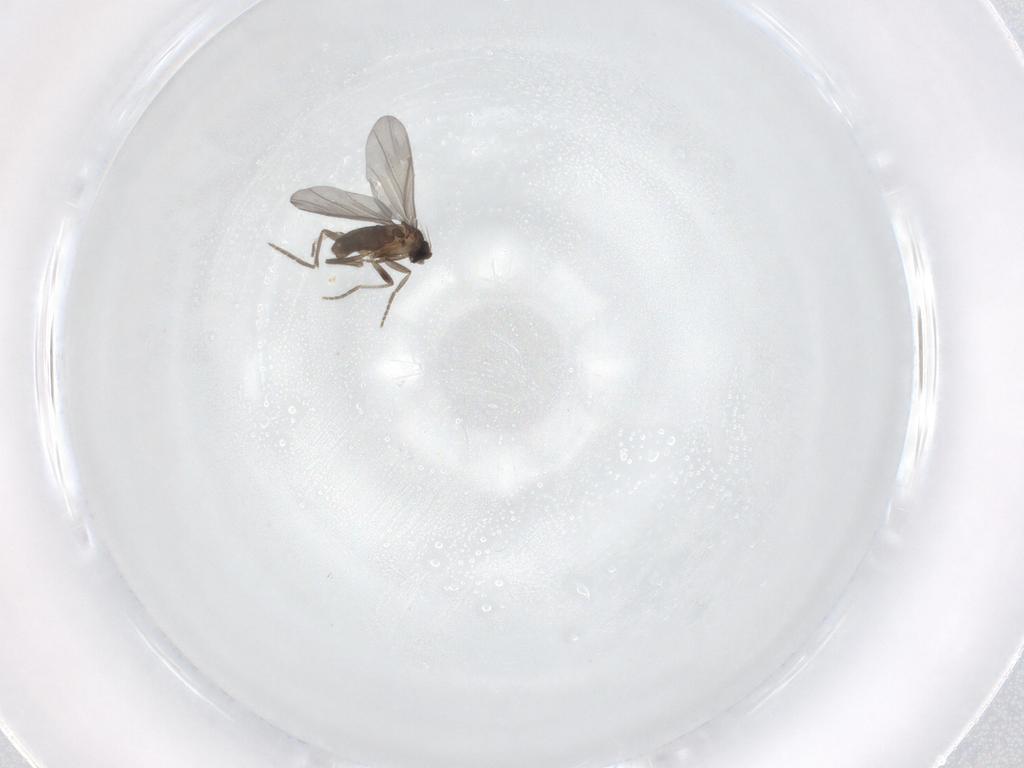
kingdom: Animalia
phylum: Arthropoda
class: Insecta
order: Diptera
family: Phoridae
